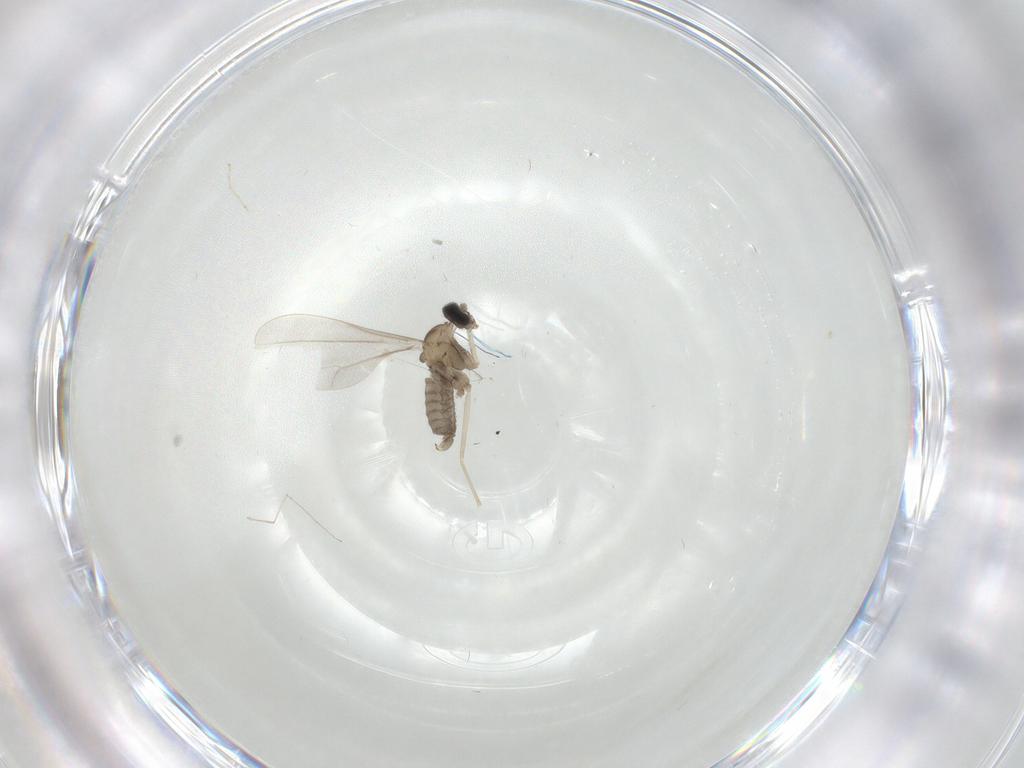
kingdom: Animalia
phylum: Arthropoda
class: Insecta
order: Diptera
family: Cecidomyiidae
